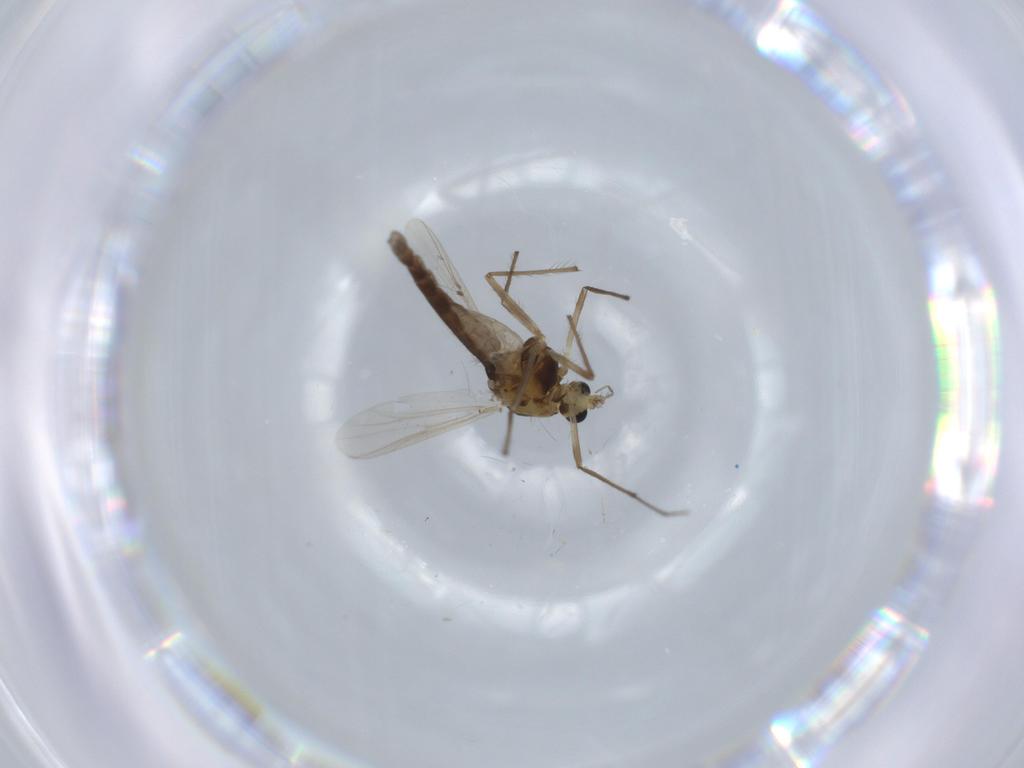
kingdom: Animalia
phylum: Arthropoda
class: Insecta
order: Diptera
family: Chironomidae
